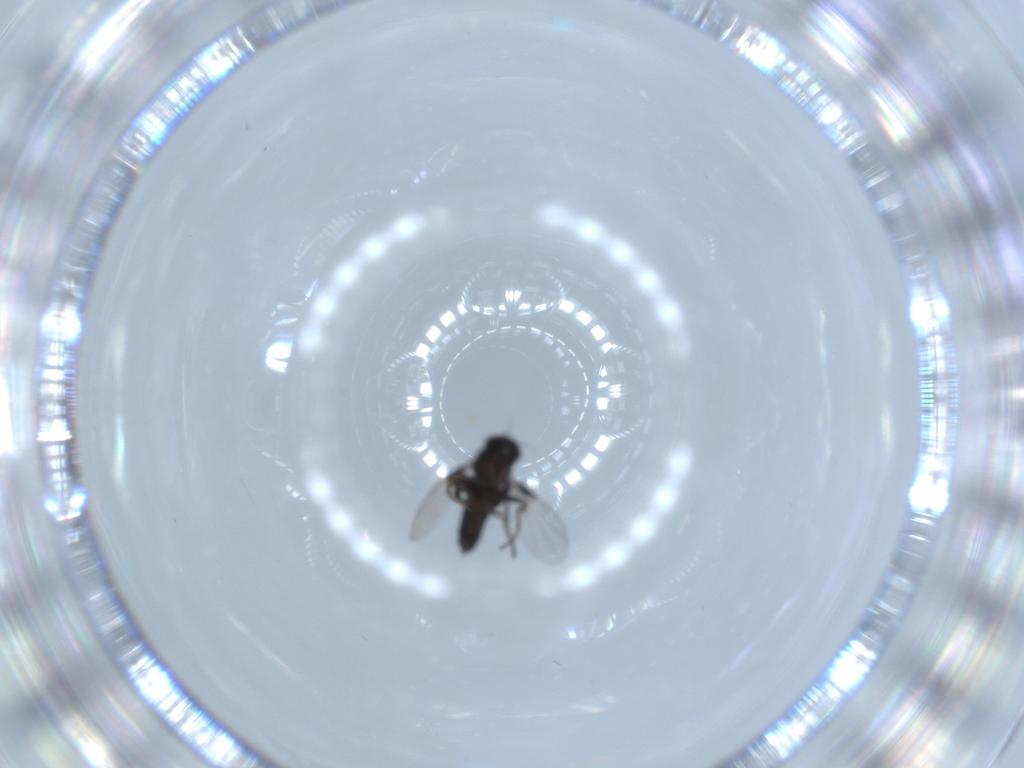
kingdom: Animalia
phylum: Arthropoda
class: Insecta
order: Diptera
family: Phoridae
